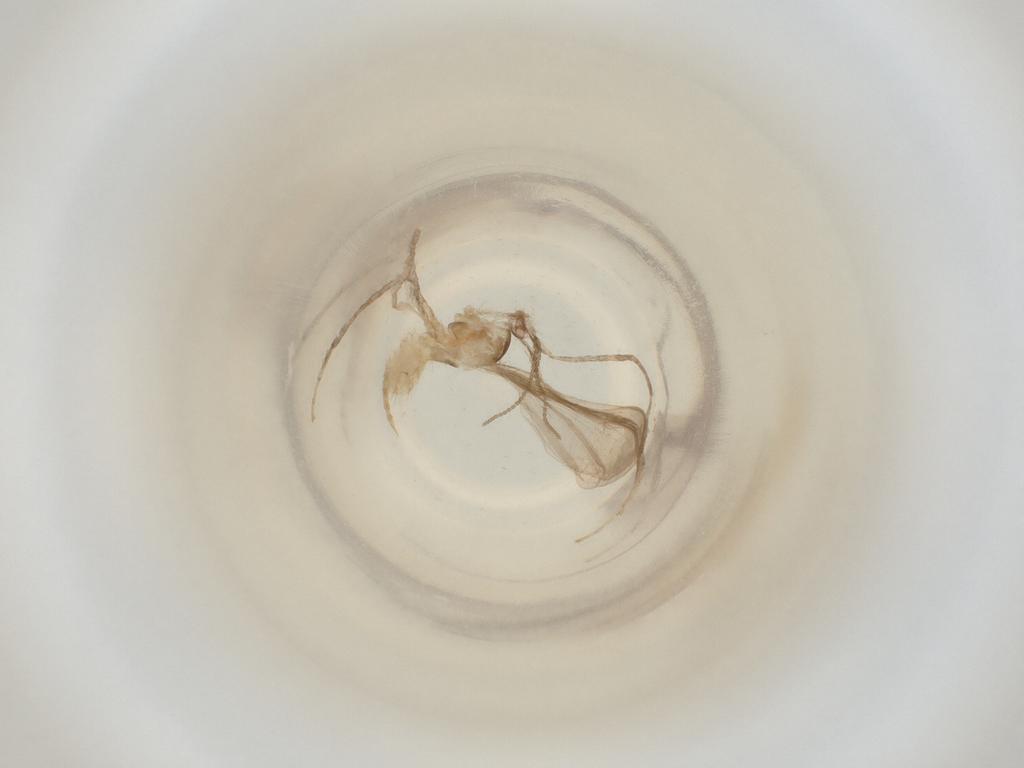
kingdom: Animalia
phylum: Arthropoda
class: Insecta
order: Diptera
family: Cecidomyiidae
